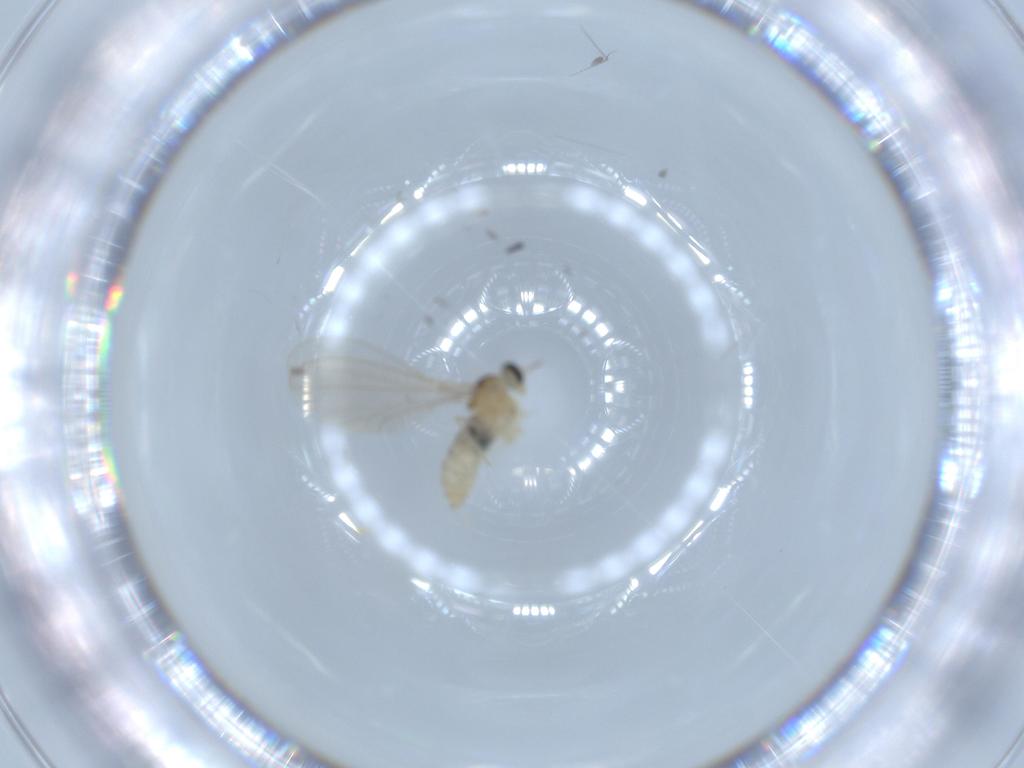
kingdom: Animalia
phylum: Arthropoda
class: Insecta
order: Diptera
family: Cecidomyiidae
